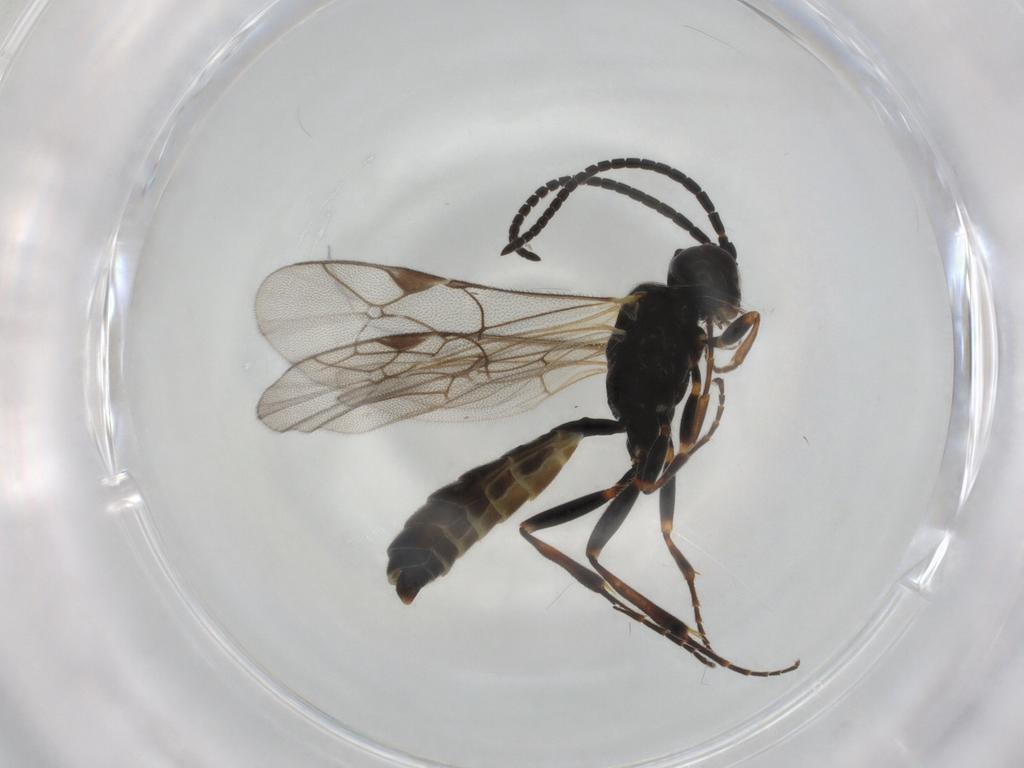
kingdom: Animalia
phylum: Arthropoda
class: Insecta
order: Hymenoptera
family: Ichneumonidae
